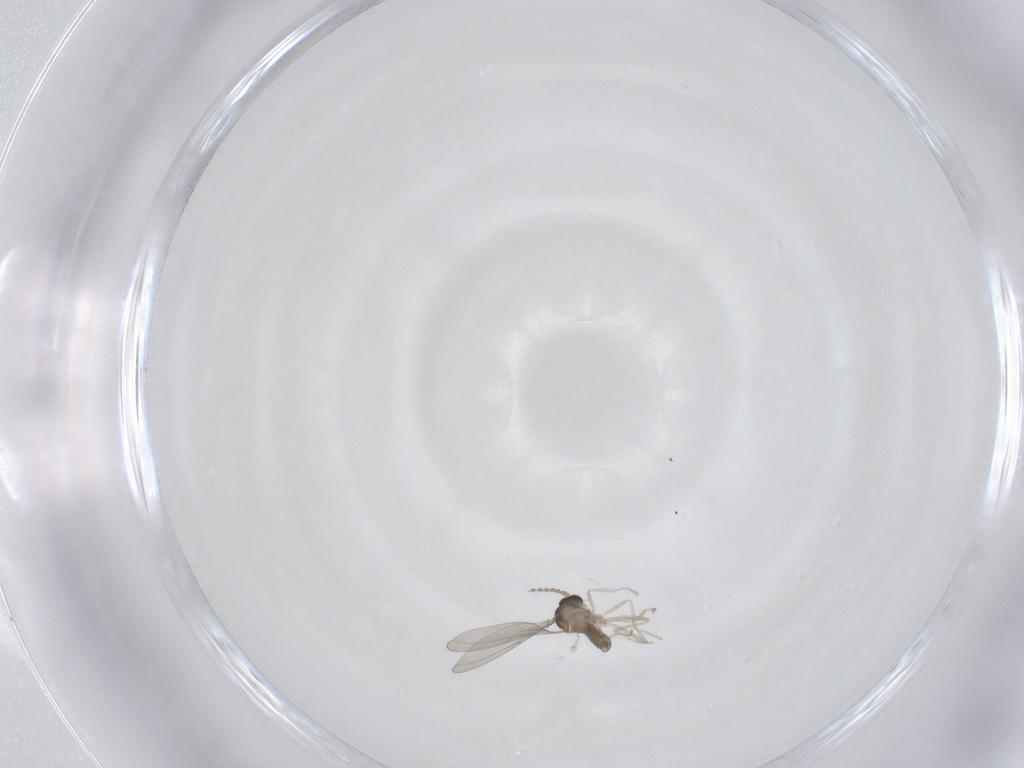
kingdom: Animalia
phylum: Arthropoda
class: Insecta
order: Diptera
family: Cecidomyiidae
